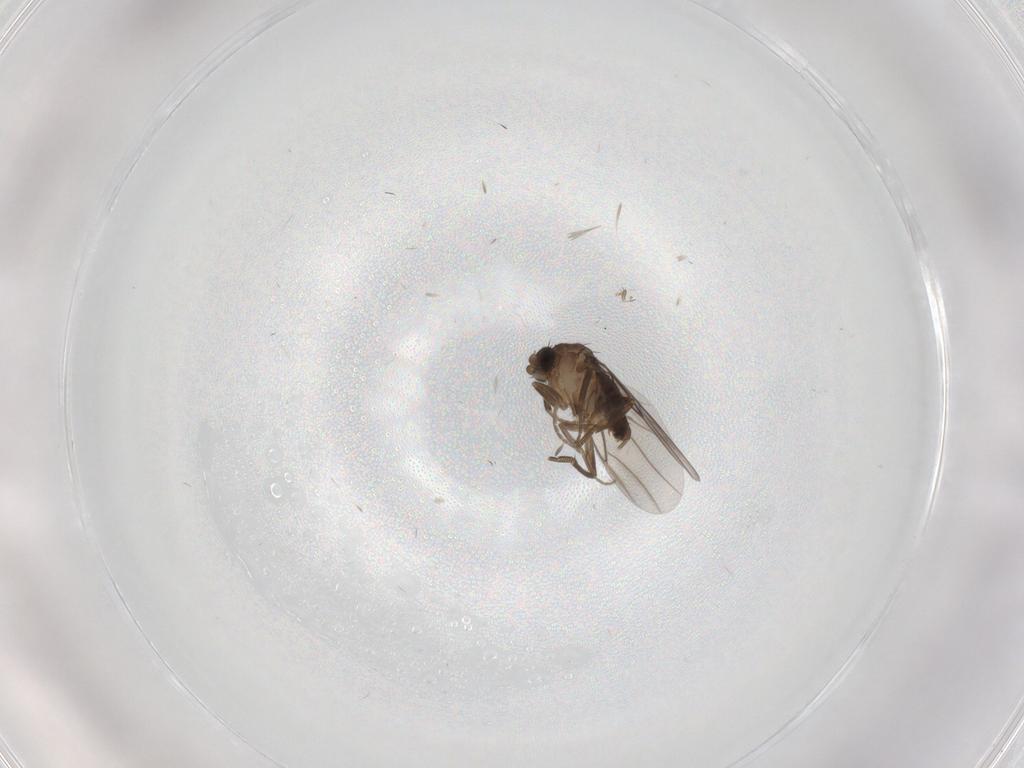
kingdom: Animalia
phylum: Arthropoda
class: Insecta
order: Diptera
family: Phoridae
